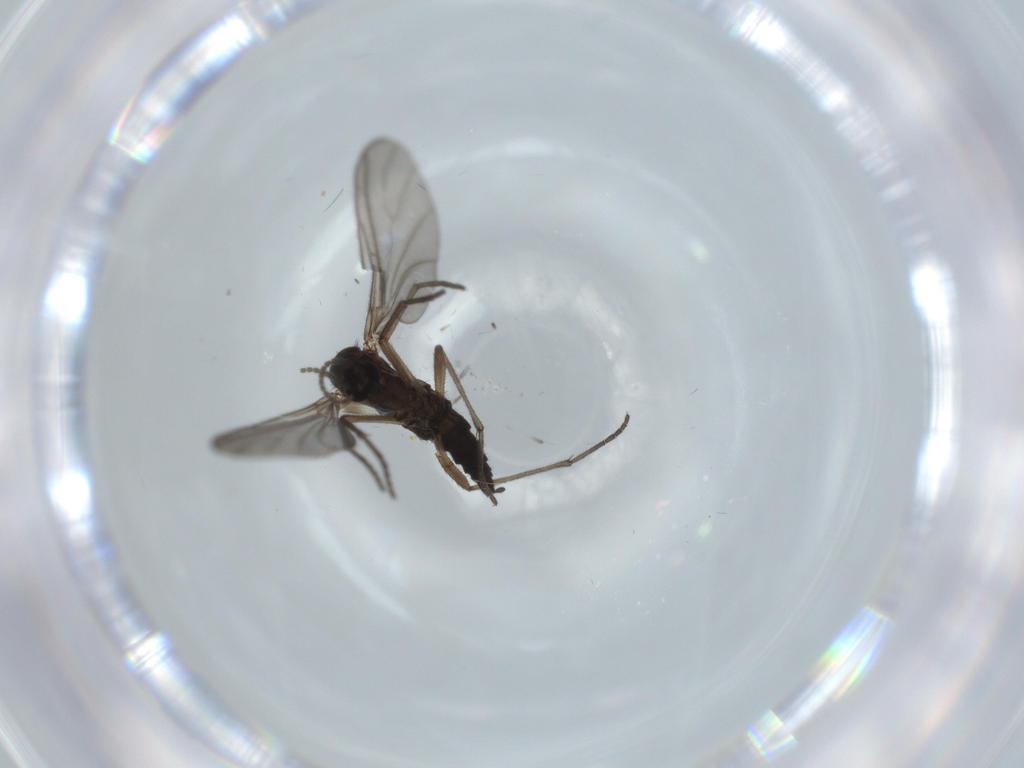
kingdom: Animalia
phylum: Arthropoda
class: Insecta
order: Diptera
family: Sciaridae
